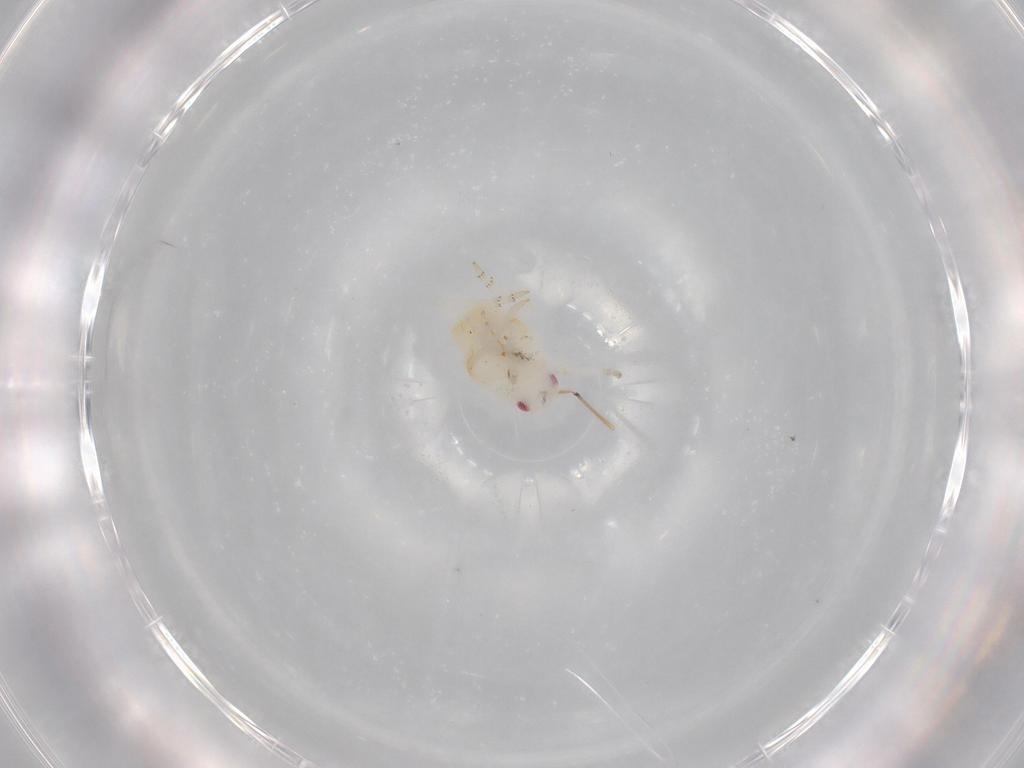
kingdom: Animalia
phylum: Arthropoda
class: Insecta
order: Hemiptera
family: Flatidae
